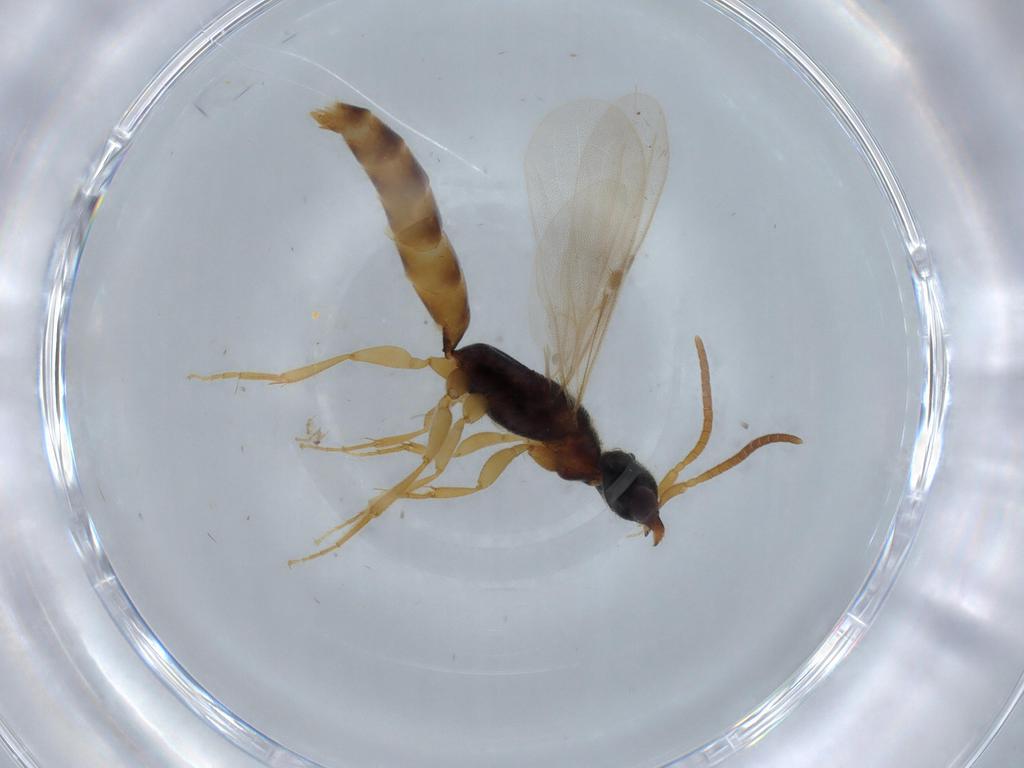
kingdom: Animalia
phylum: Arthropoda
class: Insecta
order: Hymenoptera
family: Bethylidae
